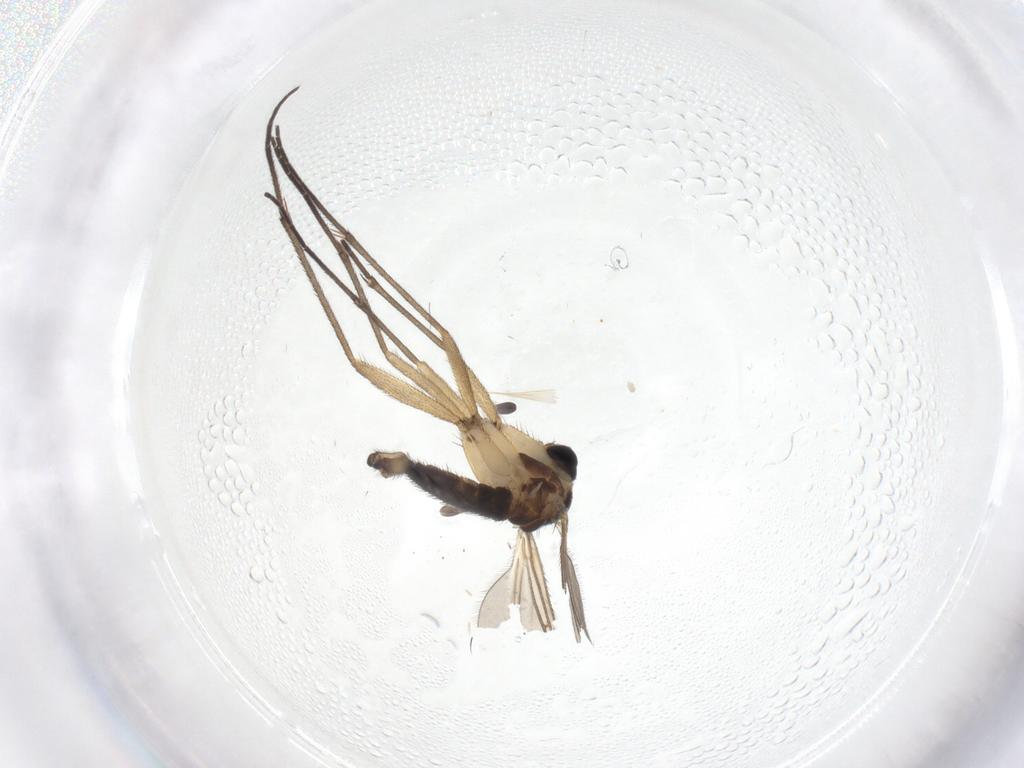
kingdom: Animalia
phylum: Arthropoda
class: Insecta
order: Diptera
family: Sciaridae
